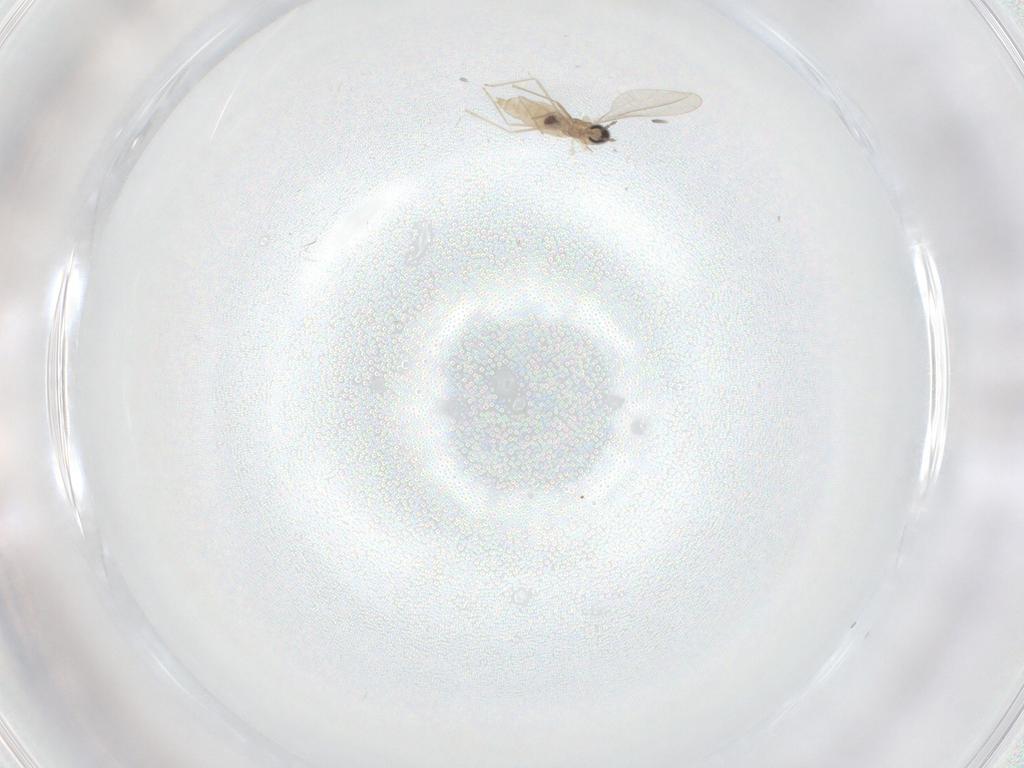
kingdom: Animalia
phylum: Arthropoda
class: Insecta
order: Diptera
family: Cecidomyiidae
